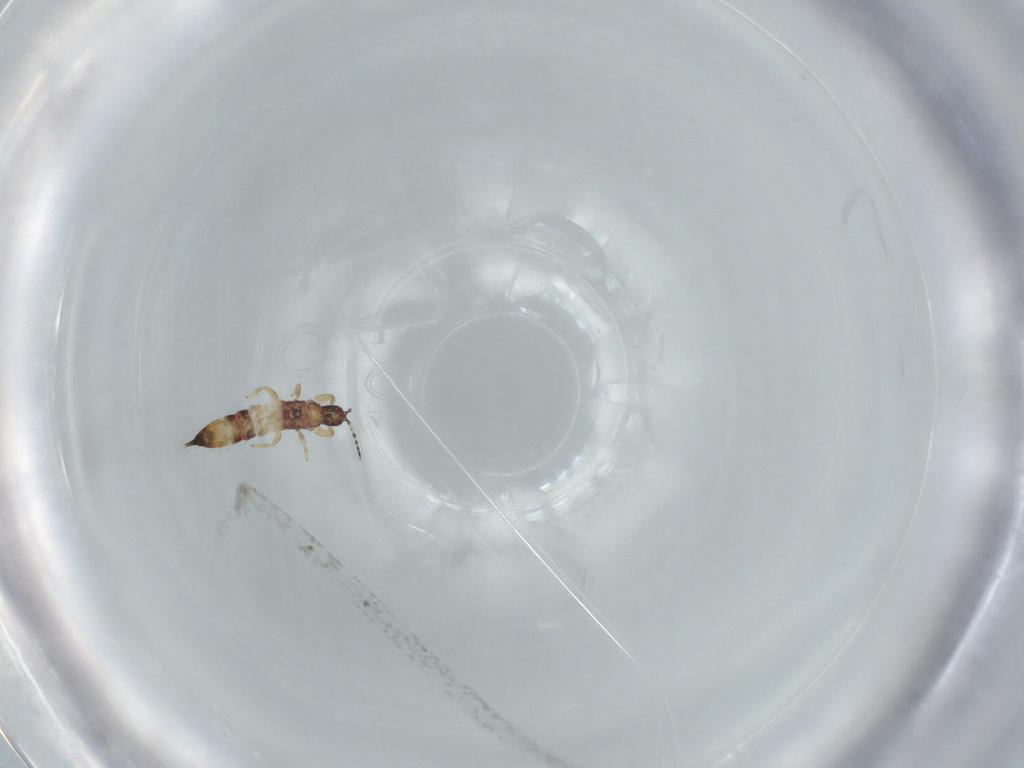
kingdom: Animalia
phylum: Arthropoda
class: Insecta
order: Thysanoptera
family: Phlaeothripidae
